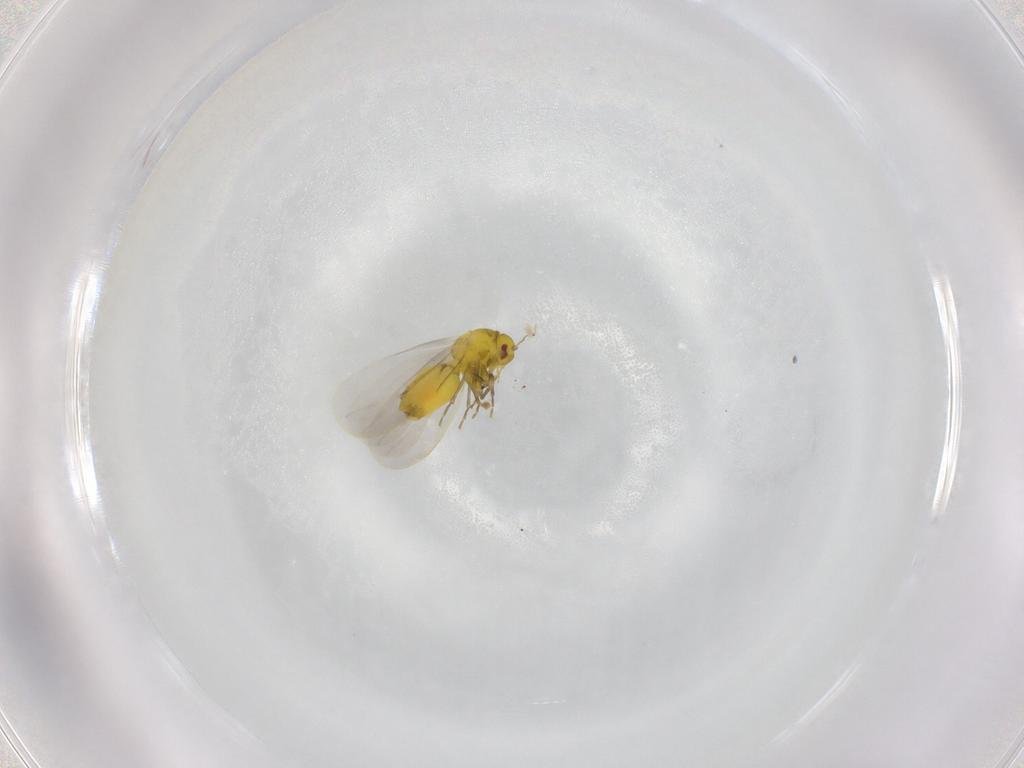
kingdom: Animalia
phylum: Arthropoda
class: Insecta
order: Hemiptera
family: Aleyrodidae
